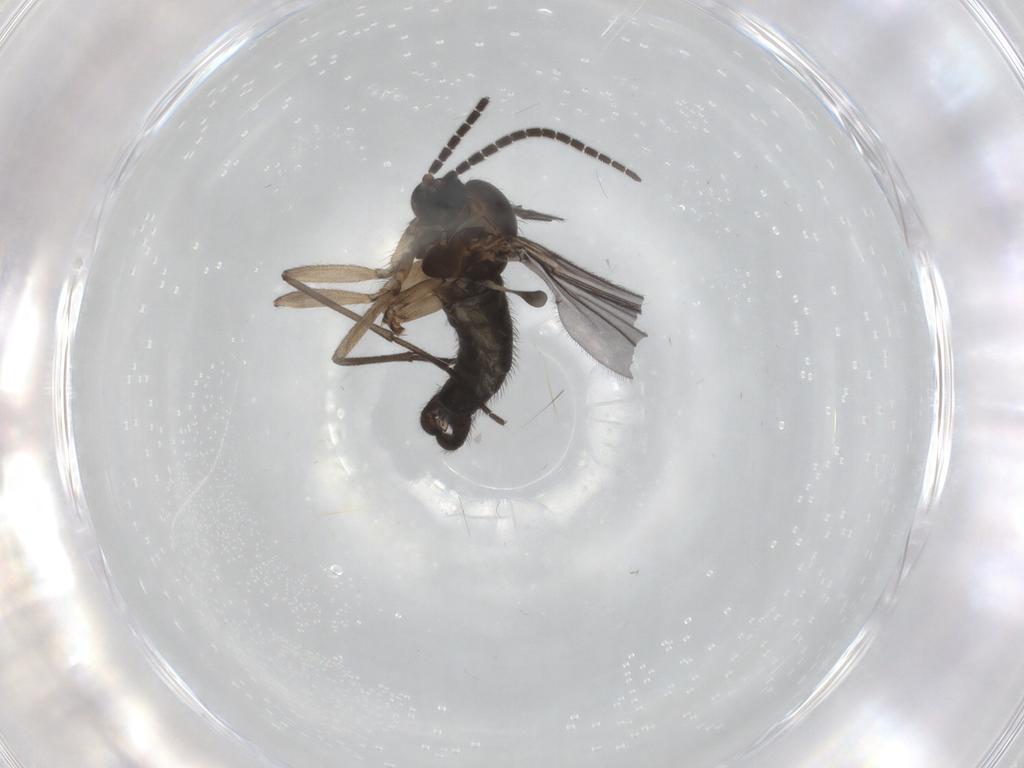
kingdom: Animalia
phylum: Arthropoda
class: Insecta
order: Diptera
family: Sciaridae
